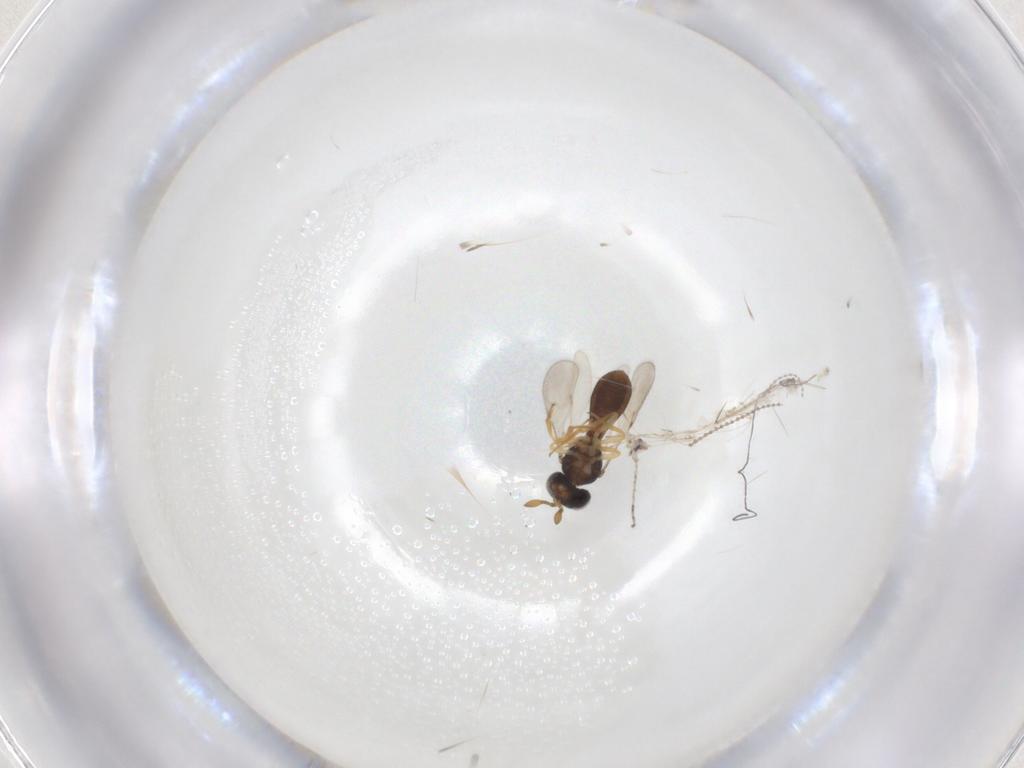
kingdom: Animalia
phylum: Arthropoda
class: Insecta
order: Hymenoptera
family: Scelionidae
